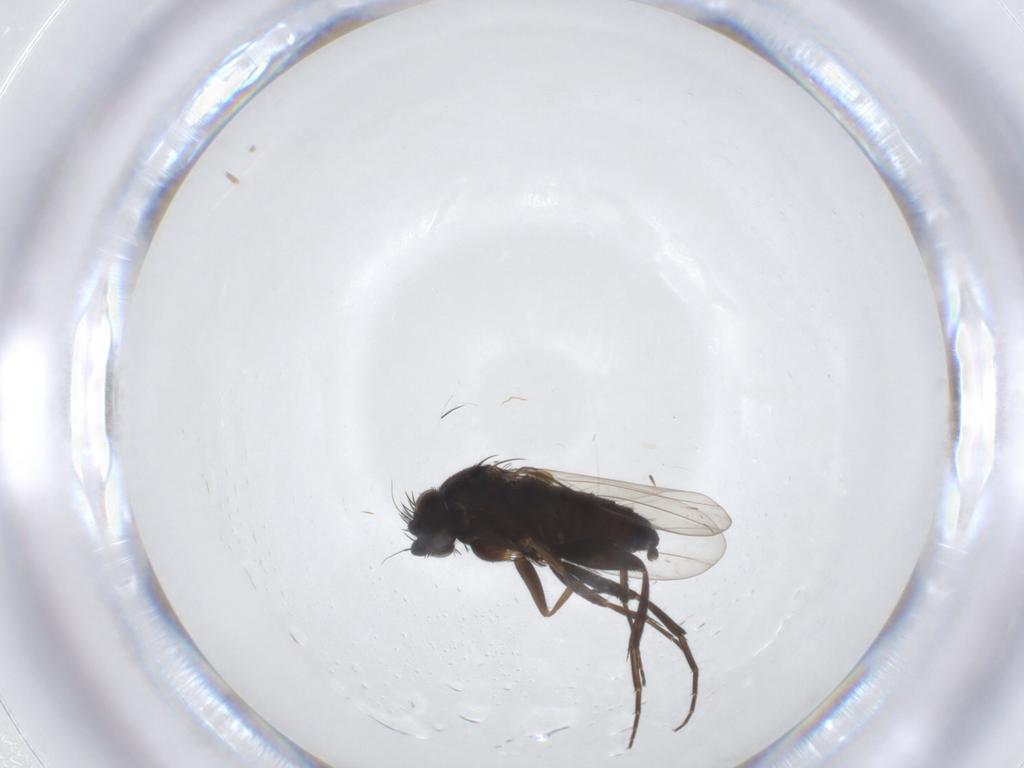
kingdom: Animalia
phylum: Arthropoda
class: Insecta
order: Diptera
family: Phoridae
